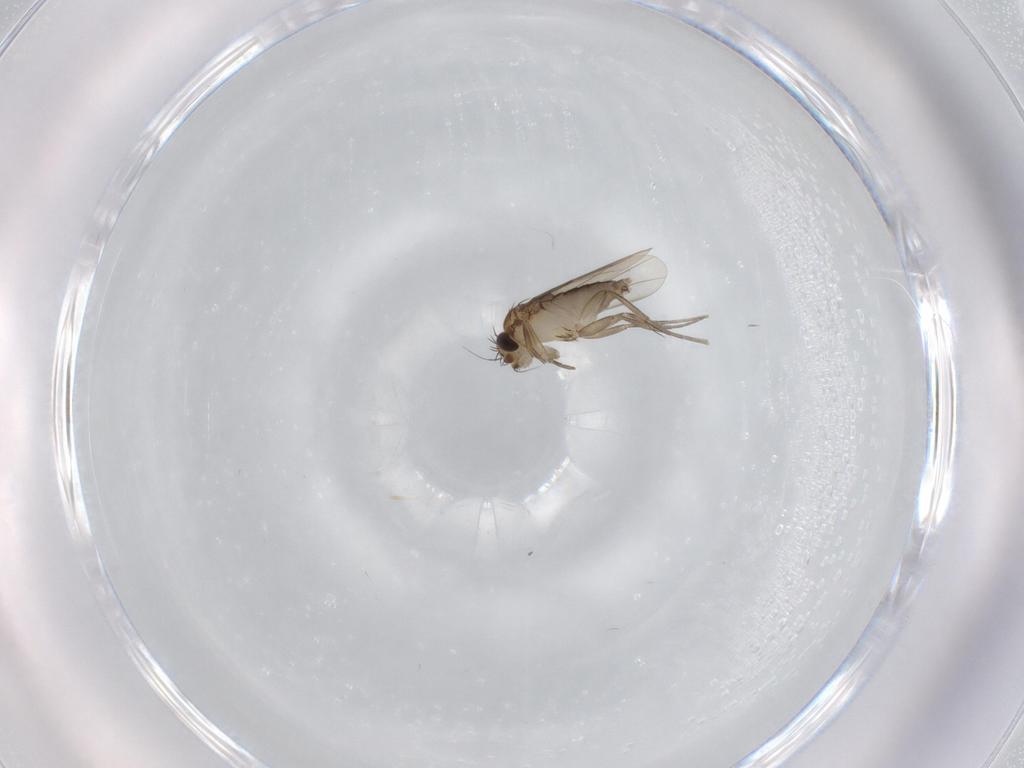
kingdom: Animalia
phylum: Arthropoda
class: Insecta
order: Diptera
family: Phoridae
